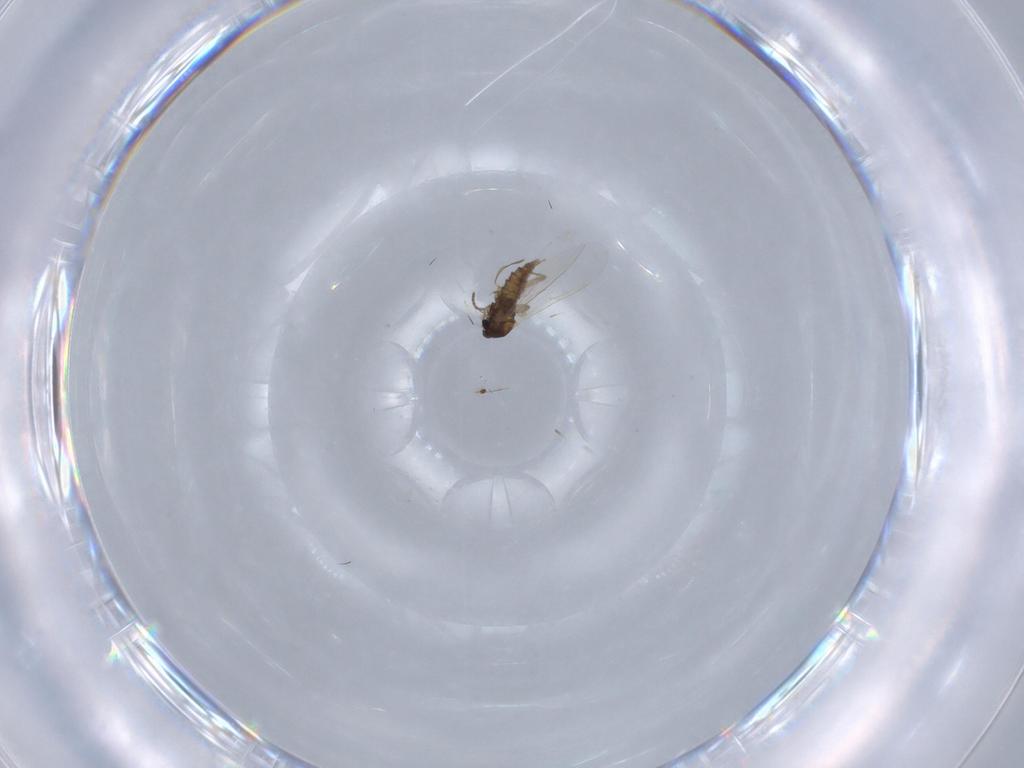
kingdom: Animalia
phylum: Arthropoda
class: Insecta
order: Diptera
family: Cecidomyiidae
